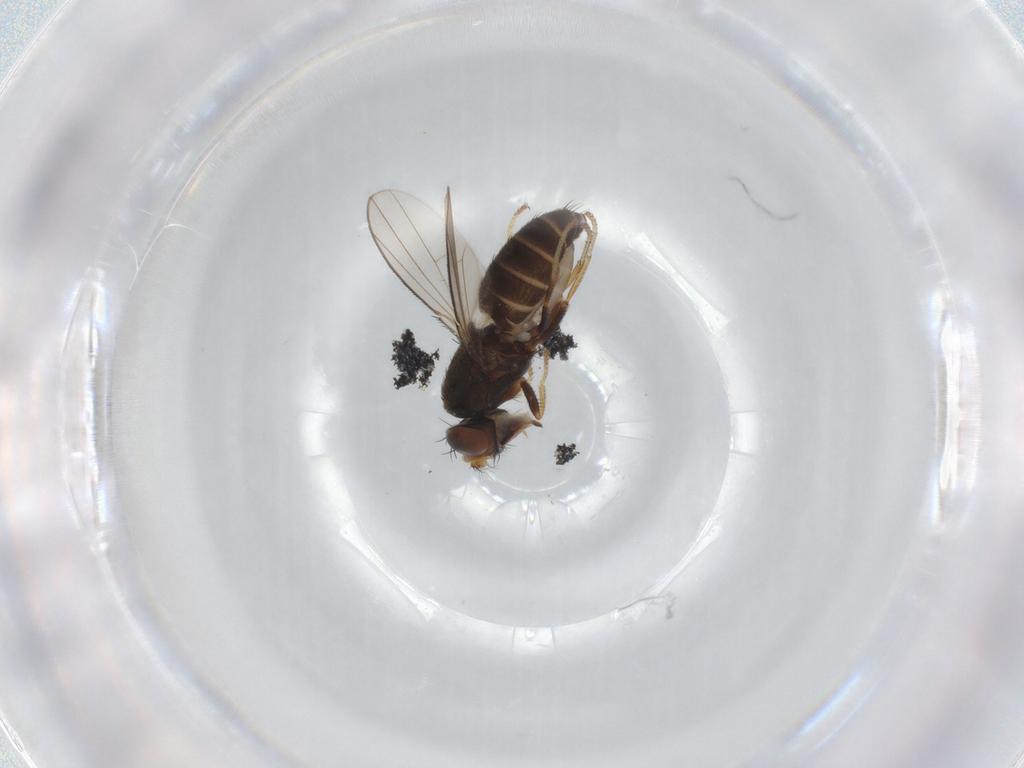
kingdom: Animalia
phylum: Arthropoda
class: Insecta
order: Diptera
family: Ephydridae
